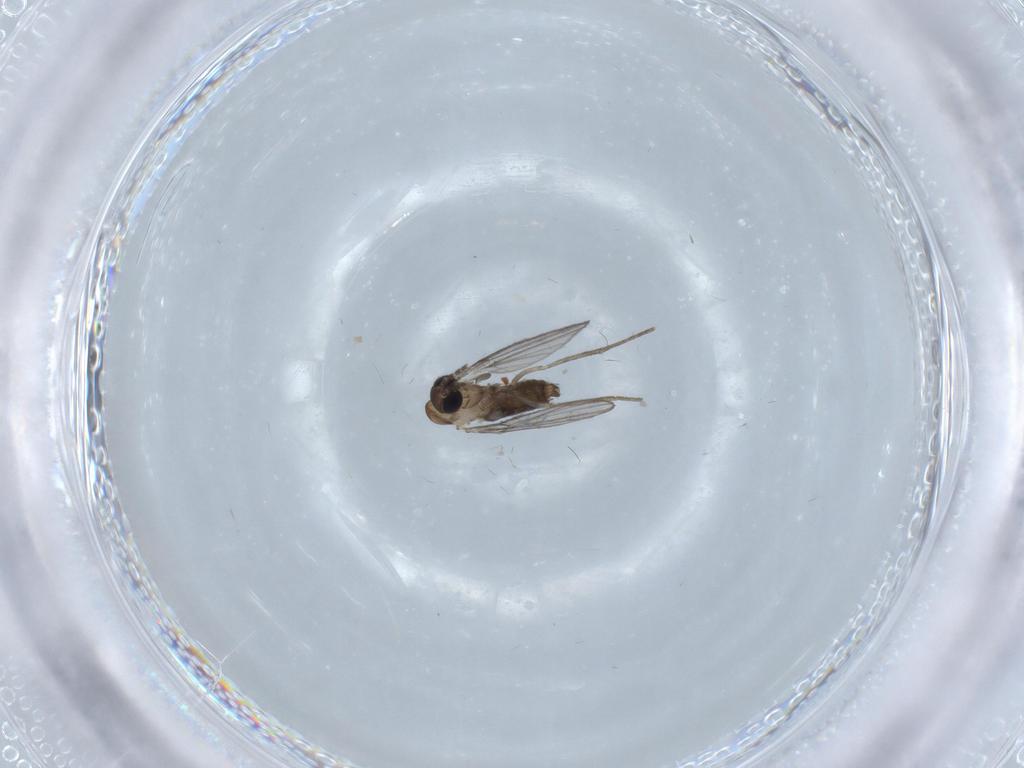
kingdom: Animalia
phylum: Arthropoda
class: Insecta
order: Diptera
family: Psychodidae
